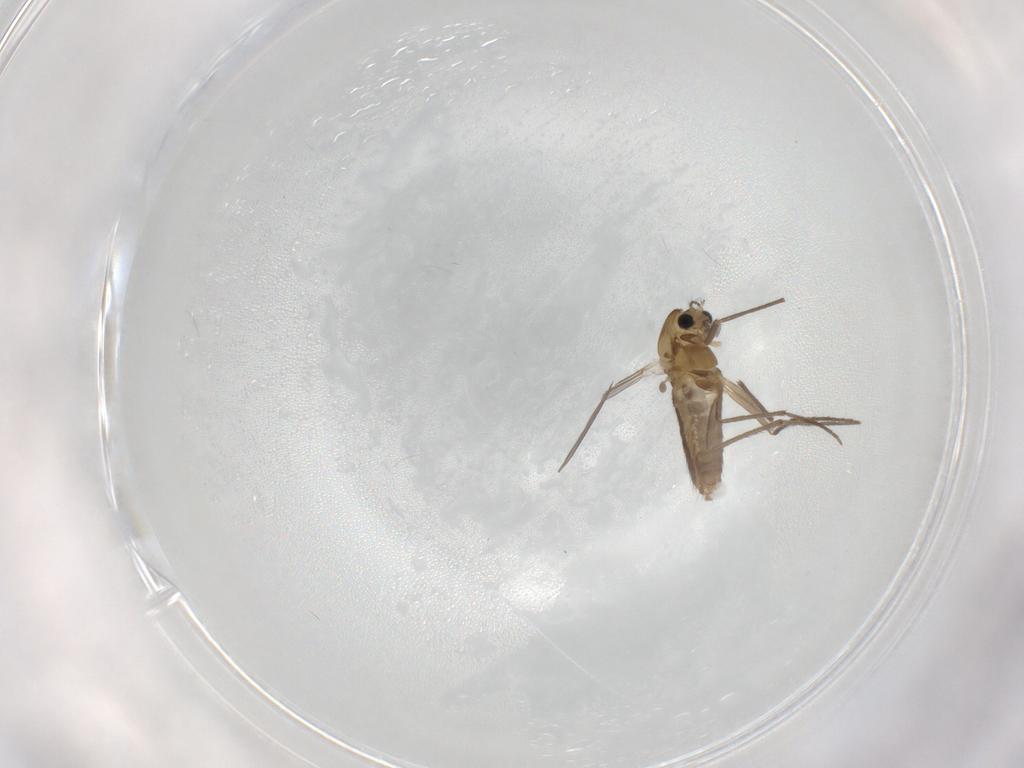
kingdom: Animalia
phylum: Arthropoda
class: Insecta
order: Diptera
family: Chironomidae
